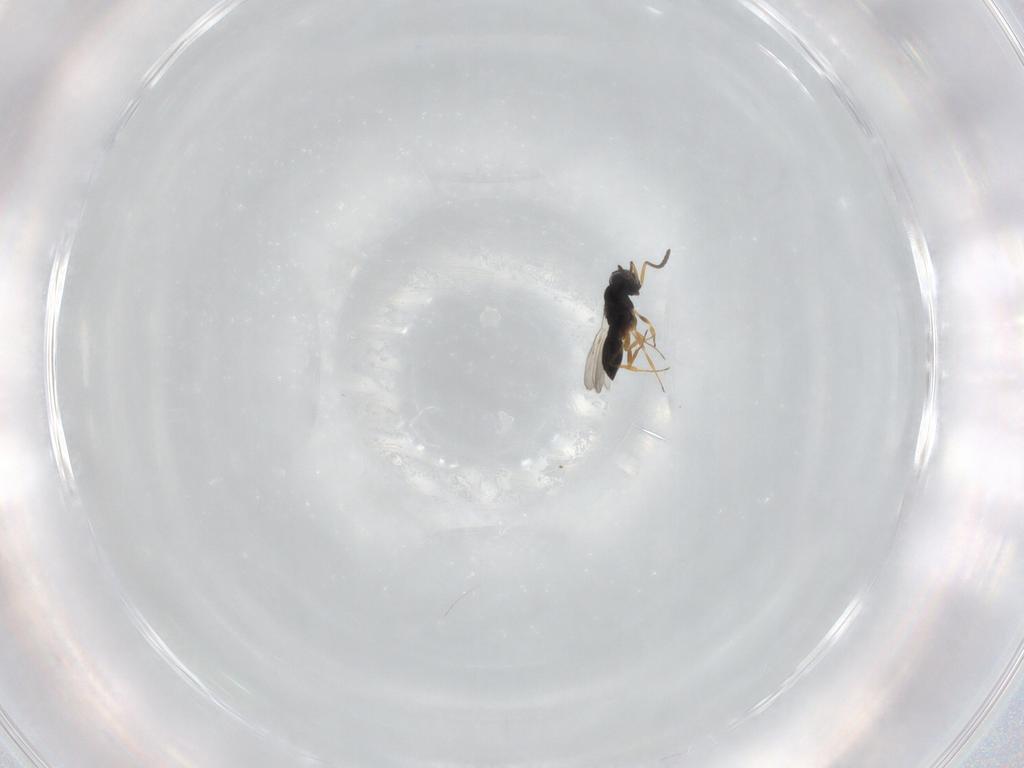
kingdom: Animalia
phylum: Arthropoda
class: Insecta
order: Hymenoptera
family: Scelionidae
